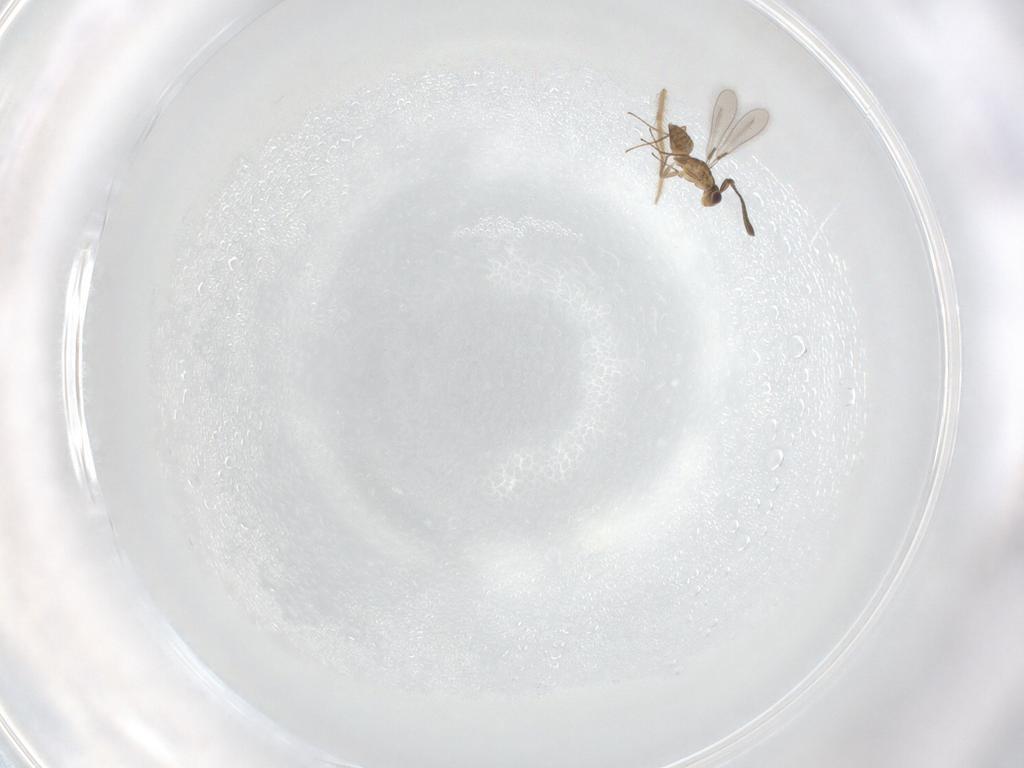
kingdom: Animalia
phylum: Arthropoda
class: Insecta
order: Hymenoptera
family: Mymaridae
